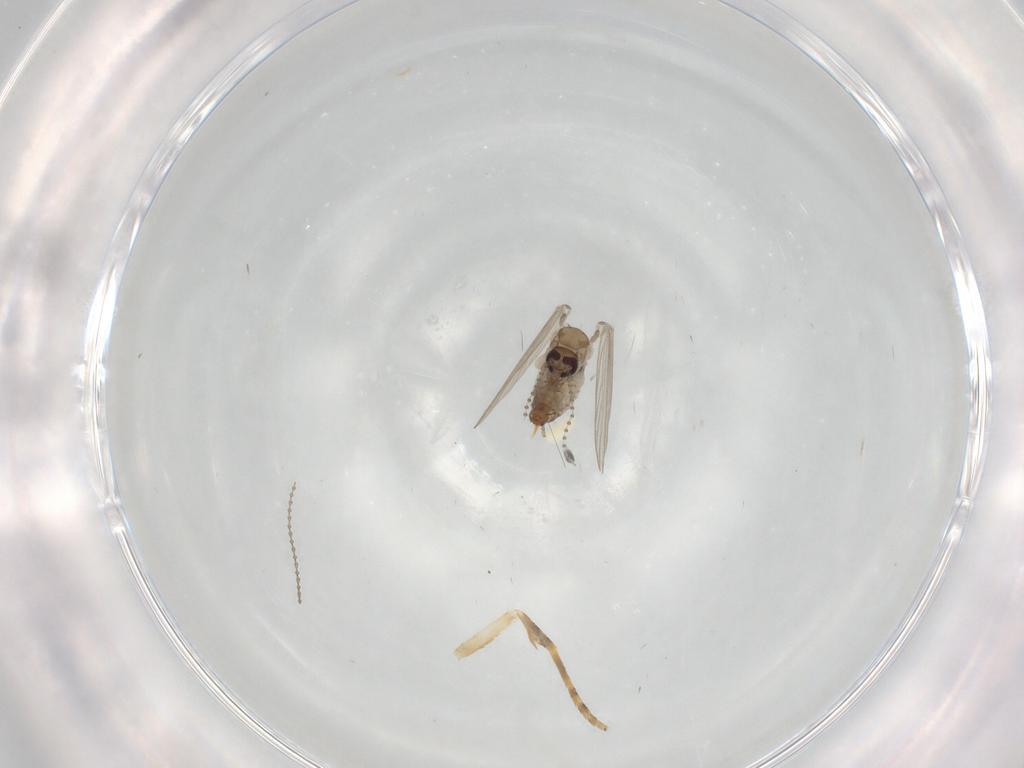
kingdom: Animalia
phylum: Arthropoda
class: Insecta
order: Diptera
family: Psychodidae
